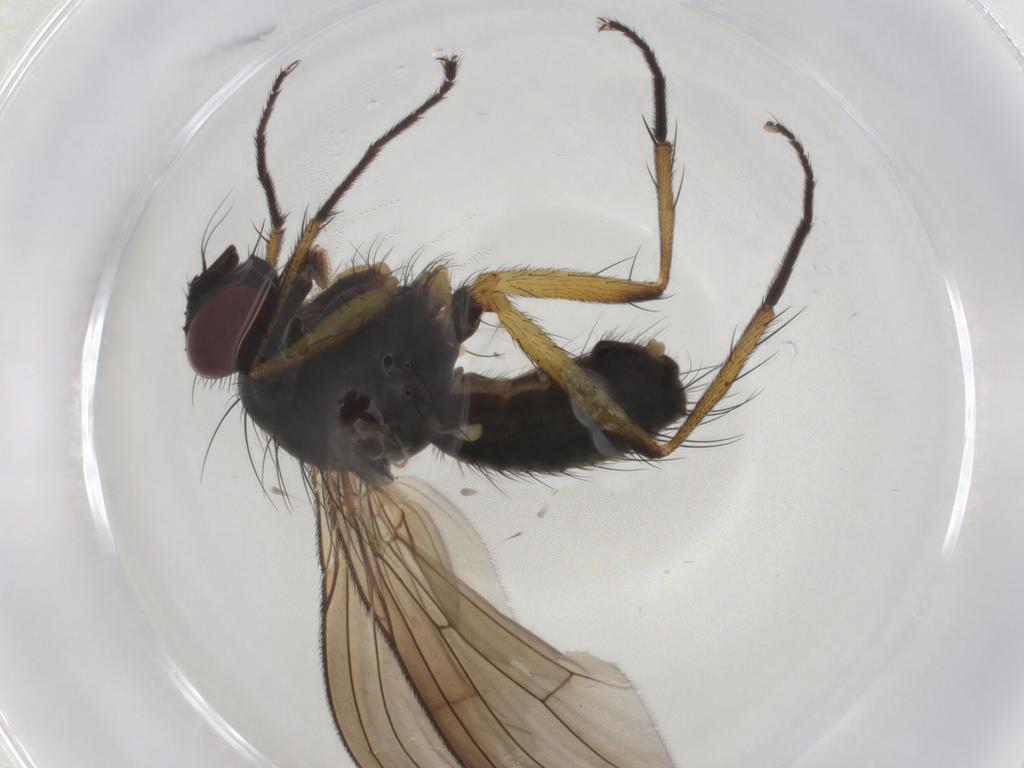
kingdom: Animalia
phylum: Arthropoda
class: Insecta
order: Diptera
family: Muscidae
